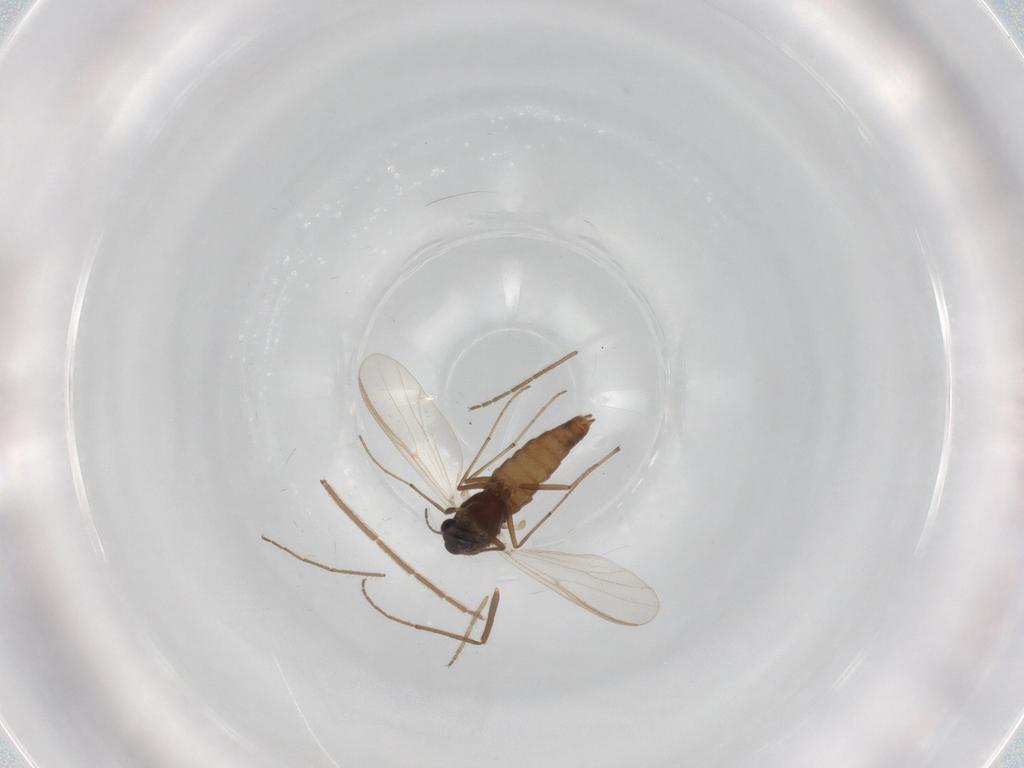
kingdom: Animalia
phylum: Arthropoda
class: Insecta
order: Diptera
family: Chironomidae
